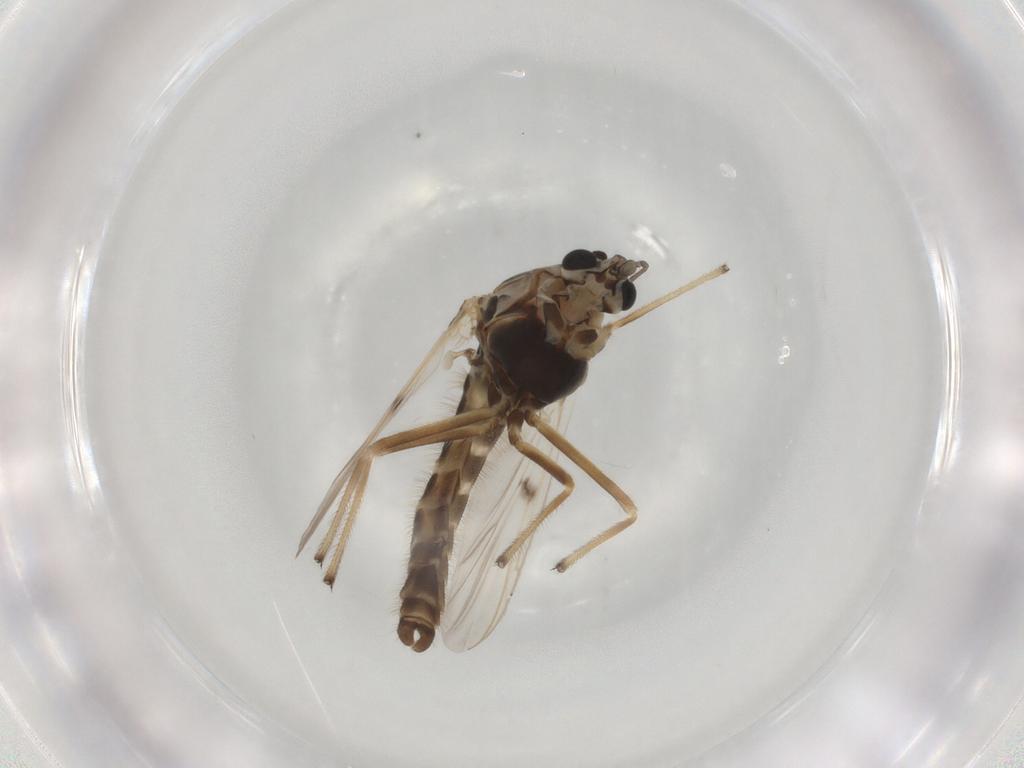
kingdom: Animalia
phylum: Arthropoda
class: Insecta
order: Diptera
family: Chironomidae
